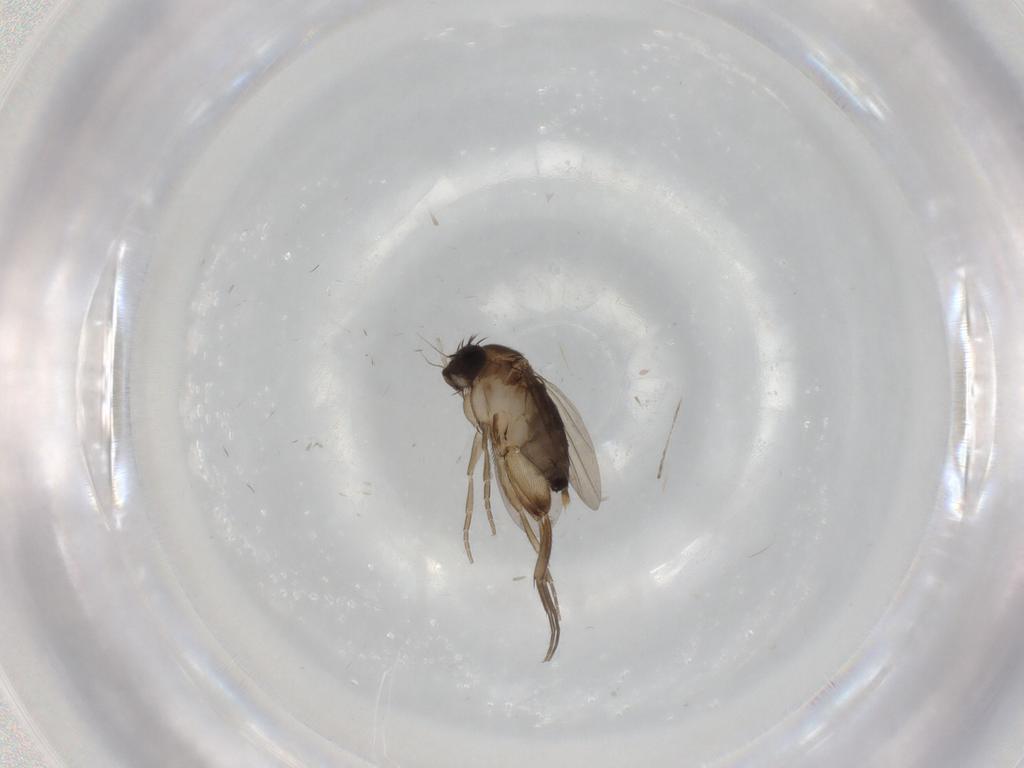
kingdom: Animalia
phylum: Arthropoda
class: Insecta
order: Diptera
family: Phoridae
